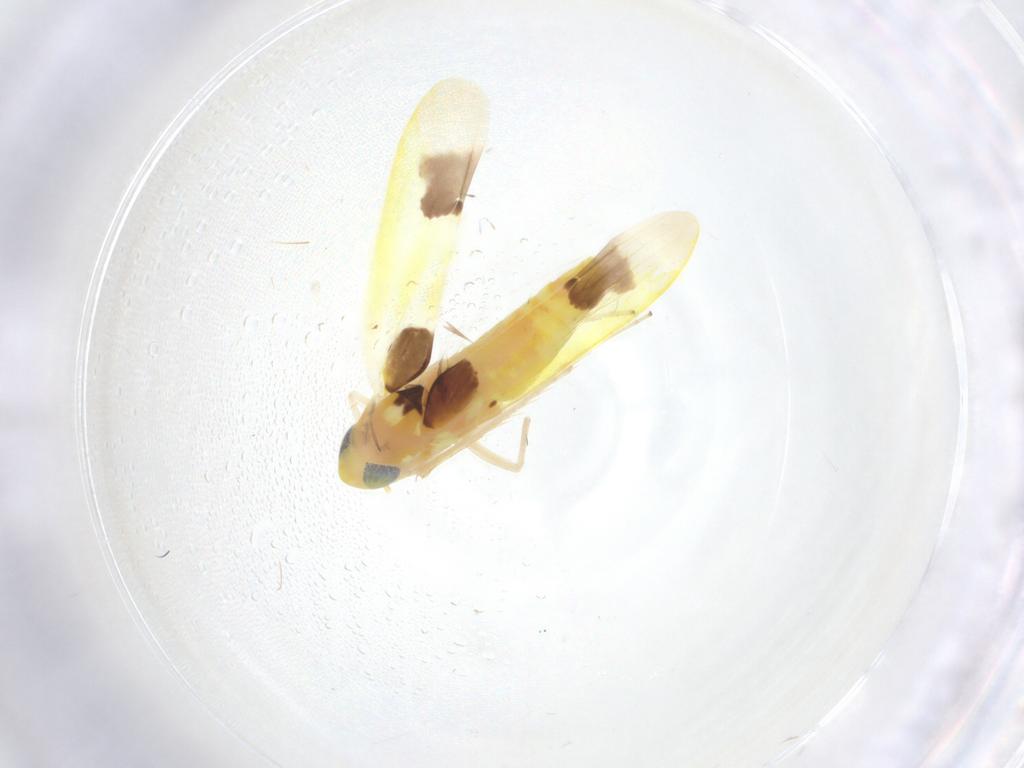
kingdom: Animalia
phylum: Arthropoda
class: Insecta
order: Hemiptera
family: Cicadellidae
